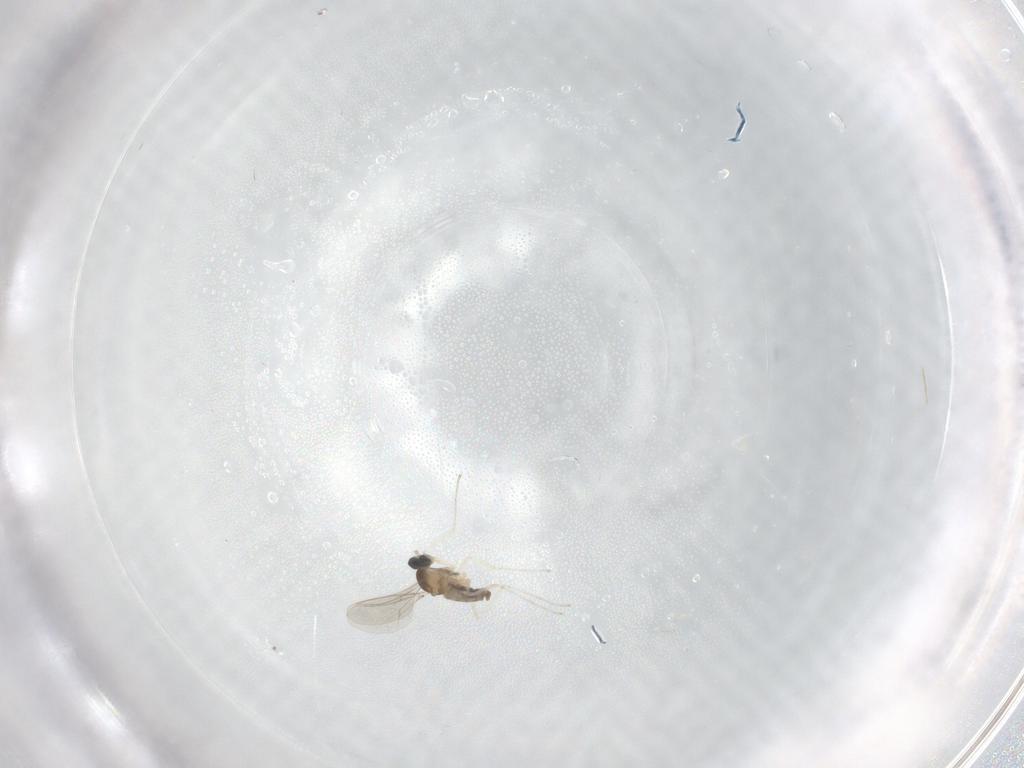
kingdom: Animalia
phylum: Arthropoda
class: Insecta
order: Diptera
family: Cecidomyiidae
